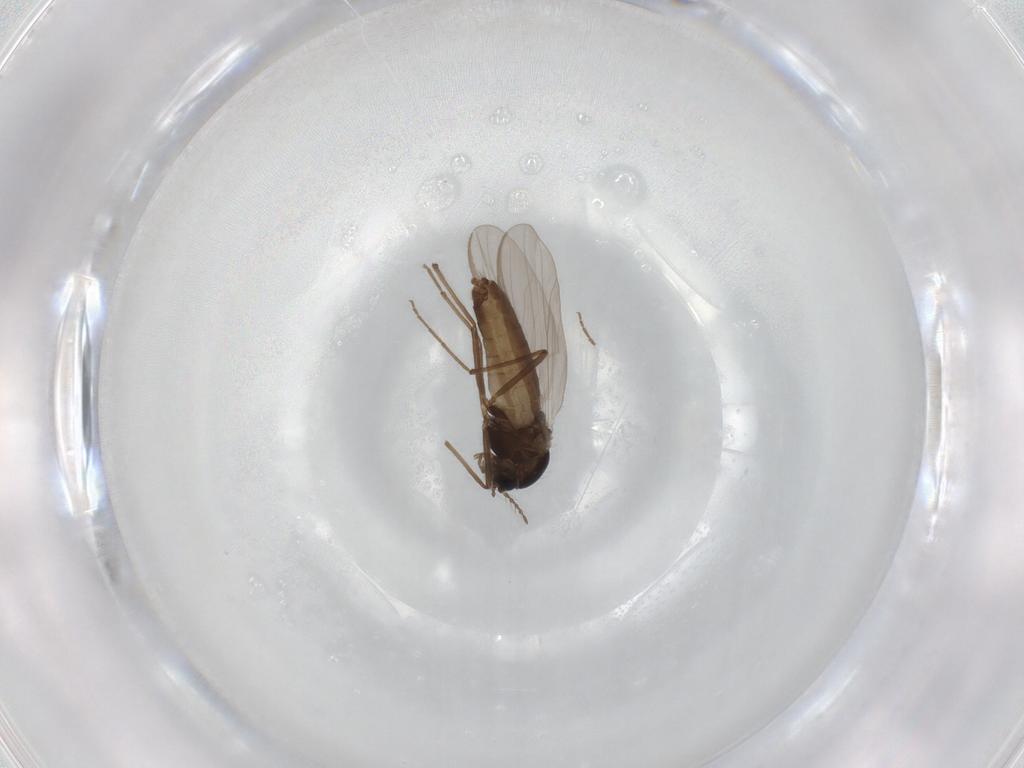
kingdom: Animalia
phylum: Arthropoda
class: Insecta
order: Diptera
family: Chironomidae
